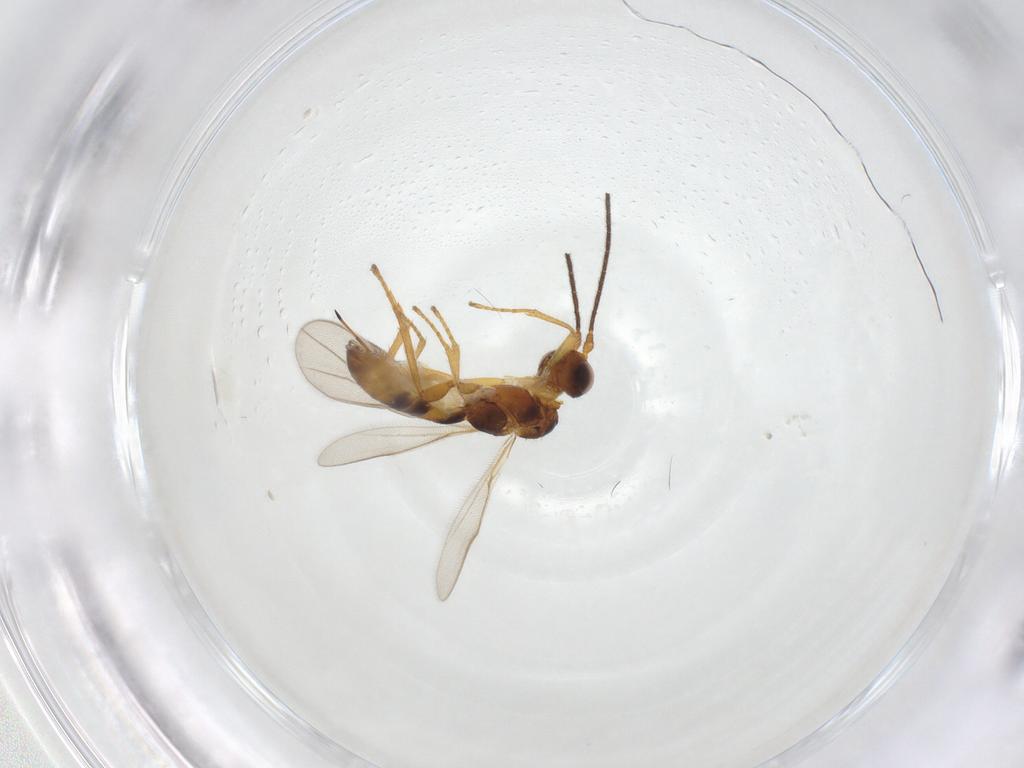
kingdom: Animalia
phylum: Arthropoda
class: Insecta
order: Hymenoptera
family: Braconidae
